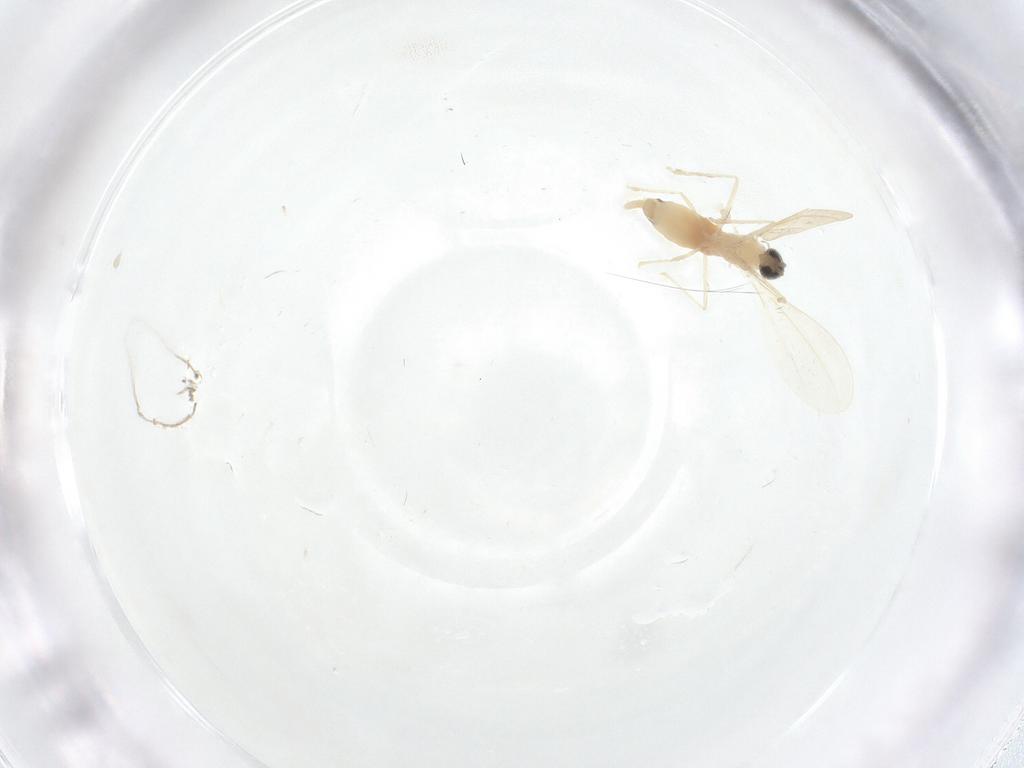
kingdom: Animalia
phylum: Arthropoda
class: Insecta
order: Diptera
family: Cecidomyiidae
